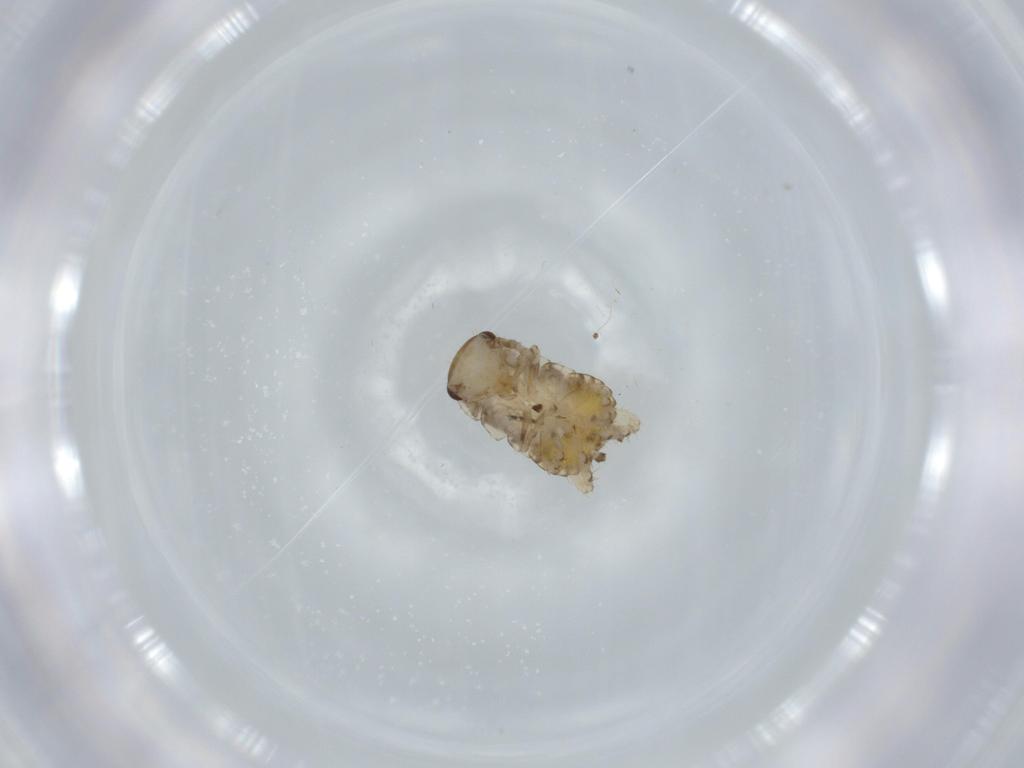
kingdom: Animalia
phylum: Arthropoda
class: Insecta
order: Blattodea
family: Ectobiidae
